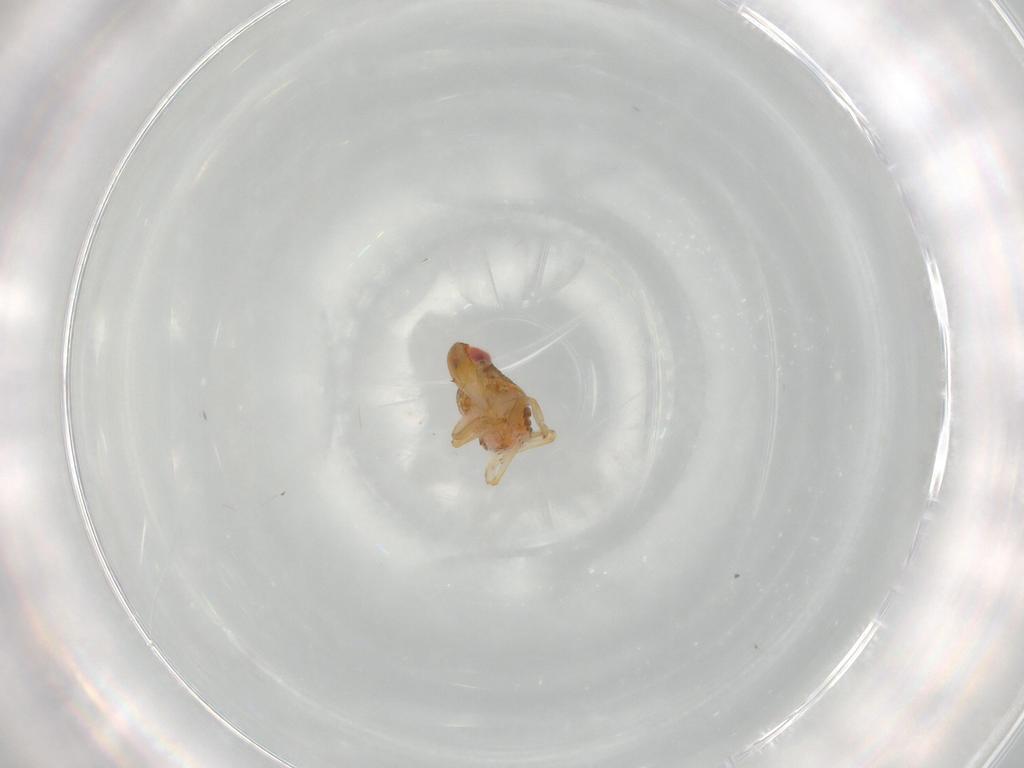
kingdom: Animalia
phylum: Arthropoda
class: Insecta
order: Hemiptera
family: Issidae
